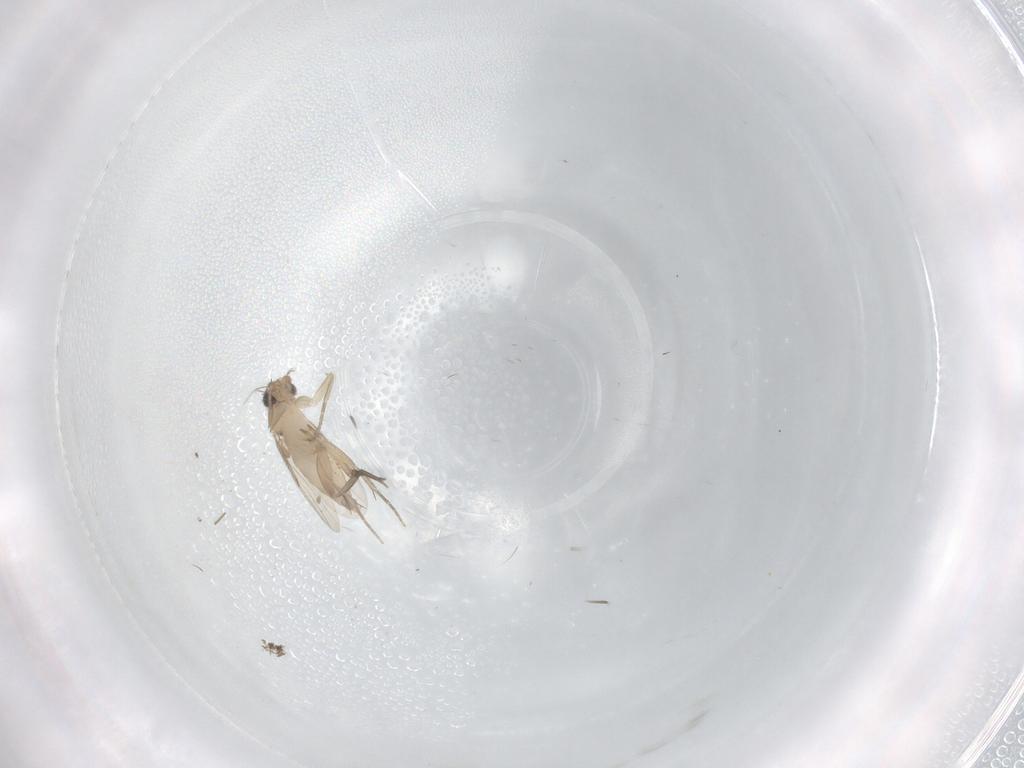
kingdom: Animalia
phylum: Arthropoda
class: Insecta
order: Diptera
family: Phoridae
